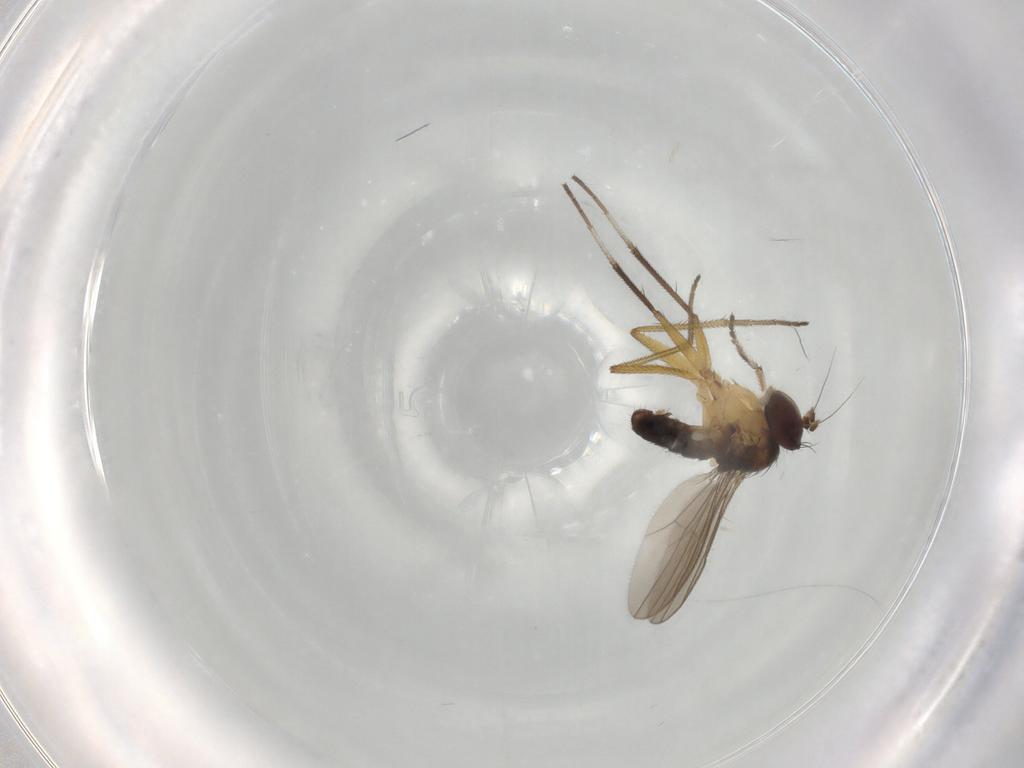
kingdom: Animalia
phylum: Arthropoda
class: Insecta
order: Diptera
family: Dolichopodidae
